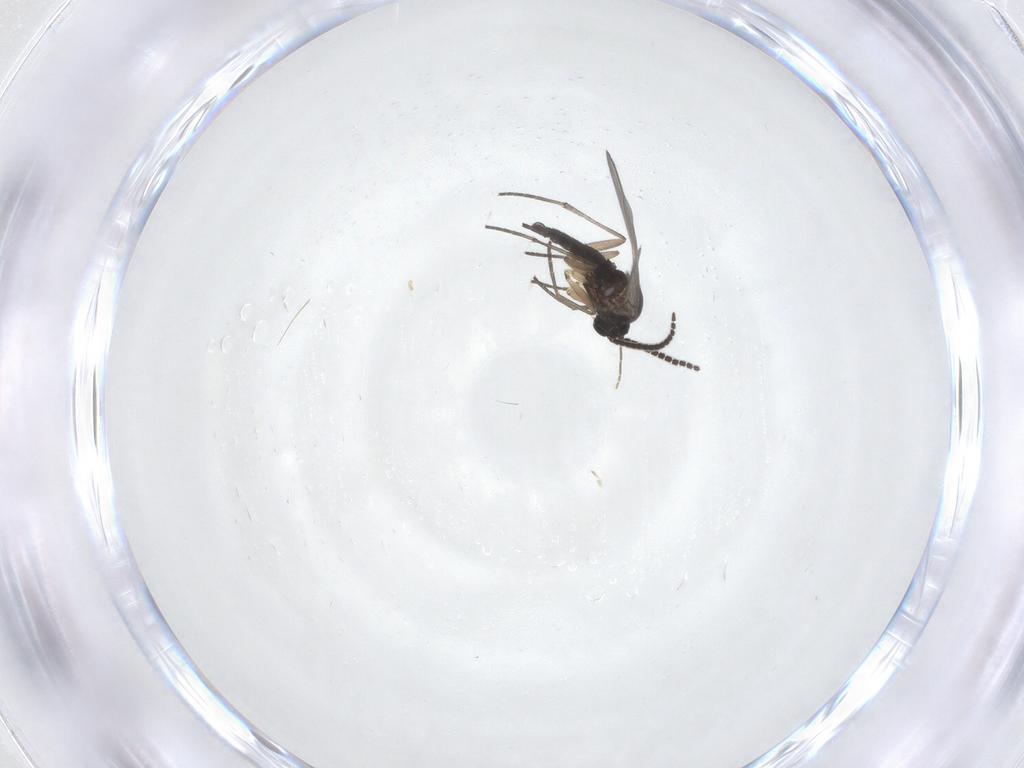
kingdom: Animalia
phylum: Arthropoda
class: Insecta
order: Diptera
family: Sciaridae
